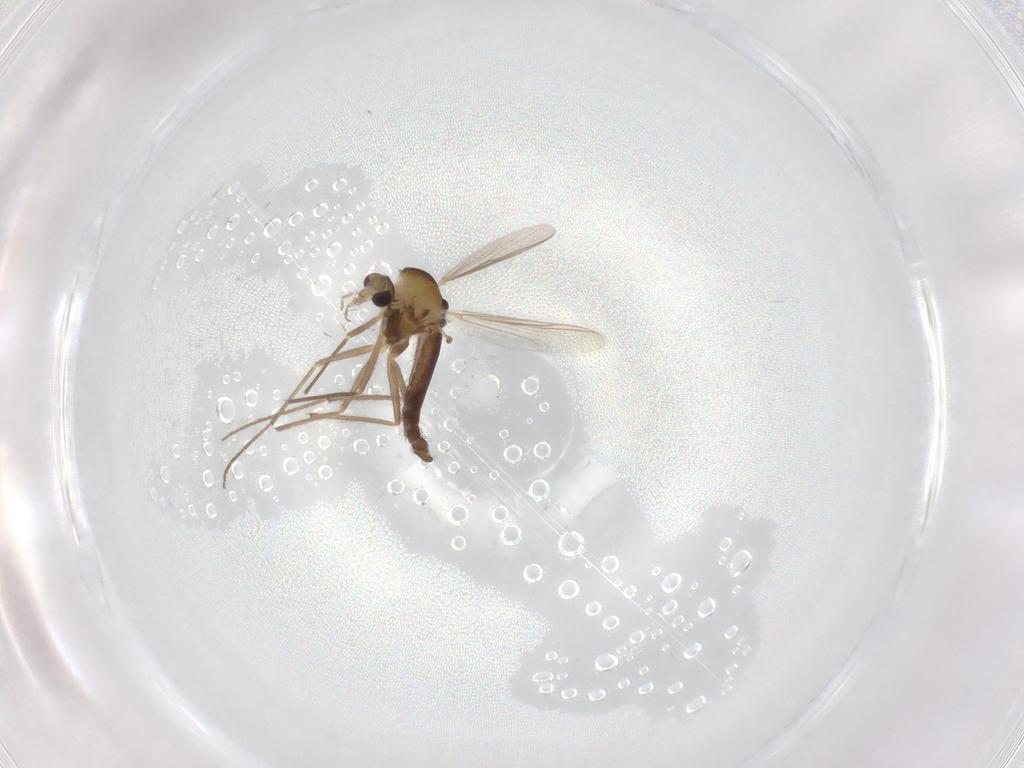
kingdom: Animalia
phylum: Arthropoda
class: Insecta
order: Diptera
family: Chironomidae
